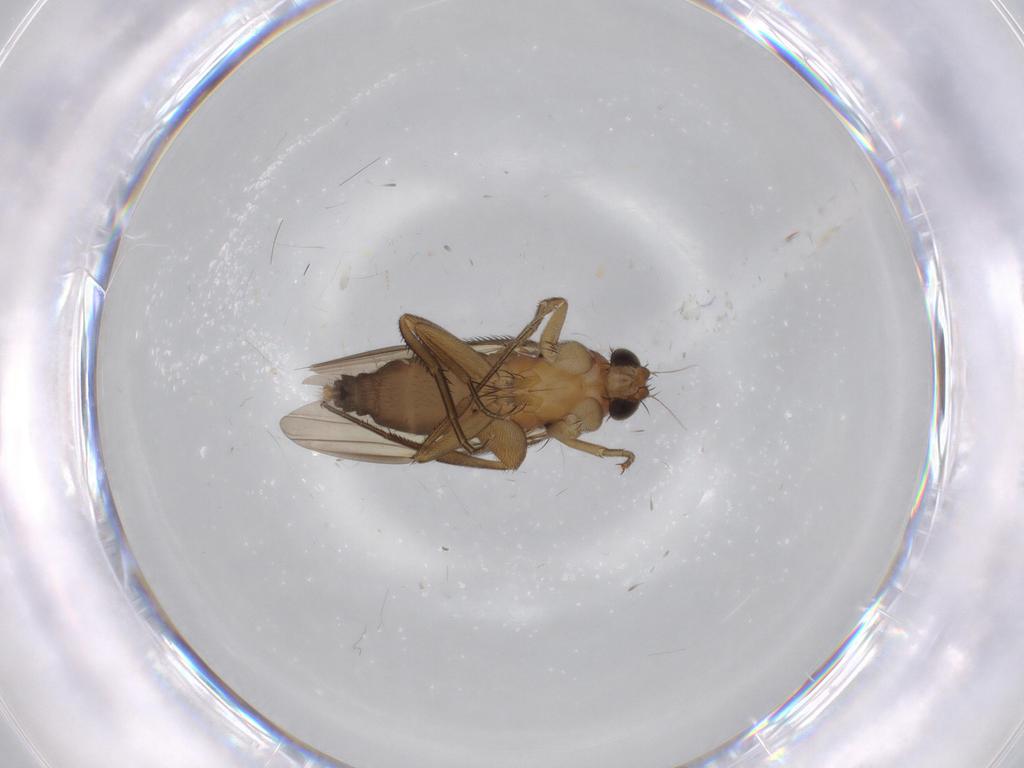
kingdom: Animalia
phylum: Arthropoda
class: Insecta
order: Diptera
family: Phoridae
